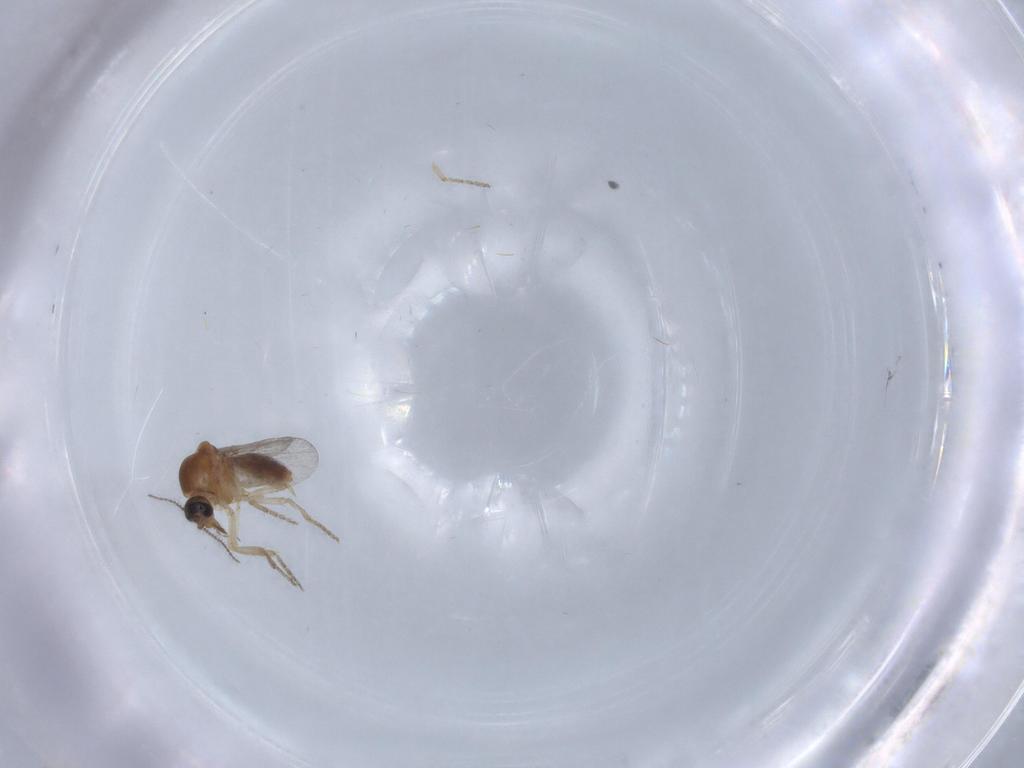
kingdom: Animalia
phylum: Arthropoda
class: Insecta
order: Diptera
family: Ceratopogonidae
